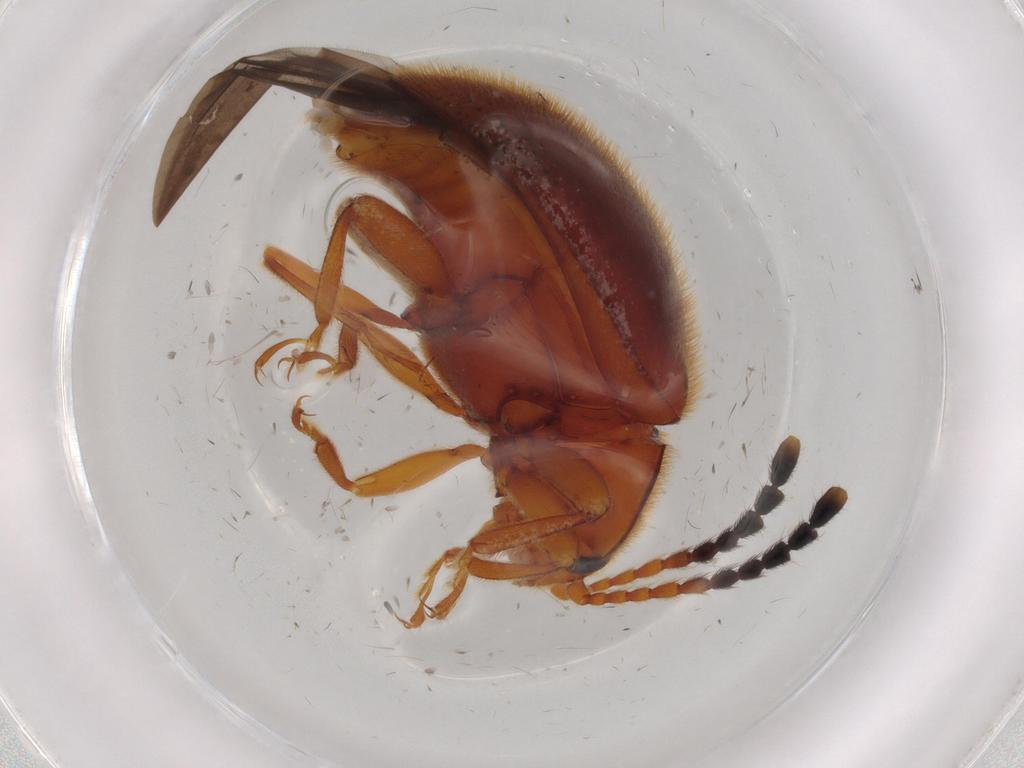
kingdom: Animalia
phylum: Arthropoda
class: Insecta
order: Coleoptera
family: Endomychidae
